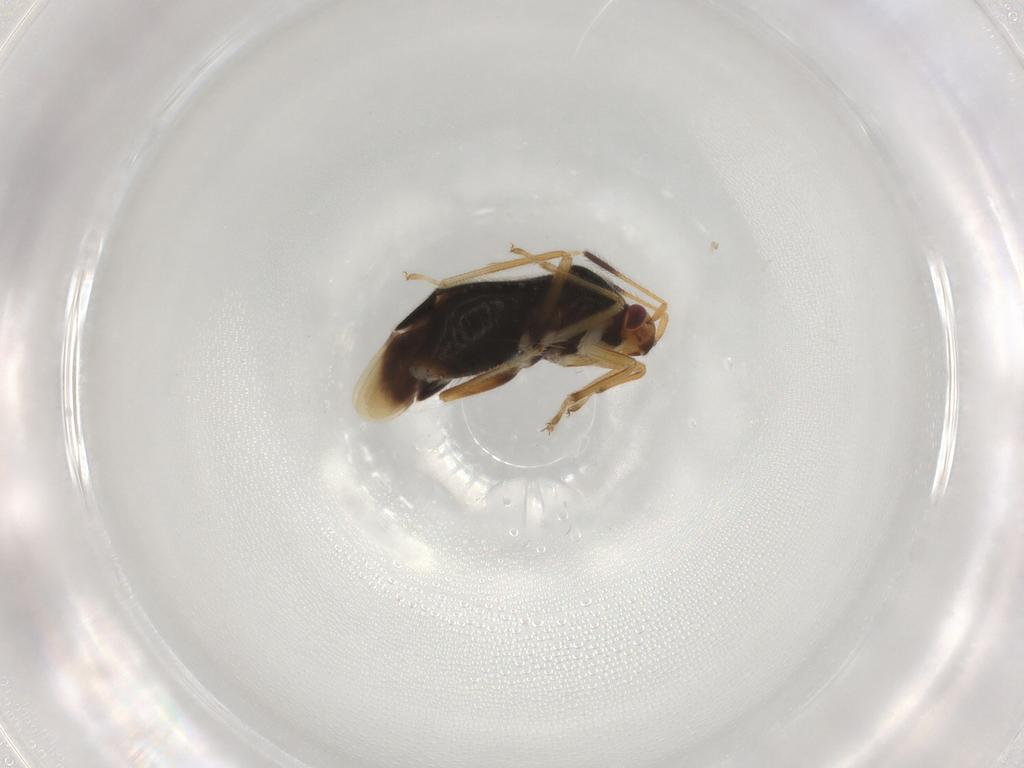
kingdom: Animalia
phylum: Arthropoda
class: Insecta
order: Hemiptera
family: Miridae
